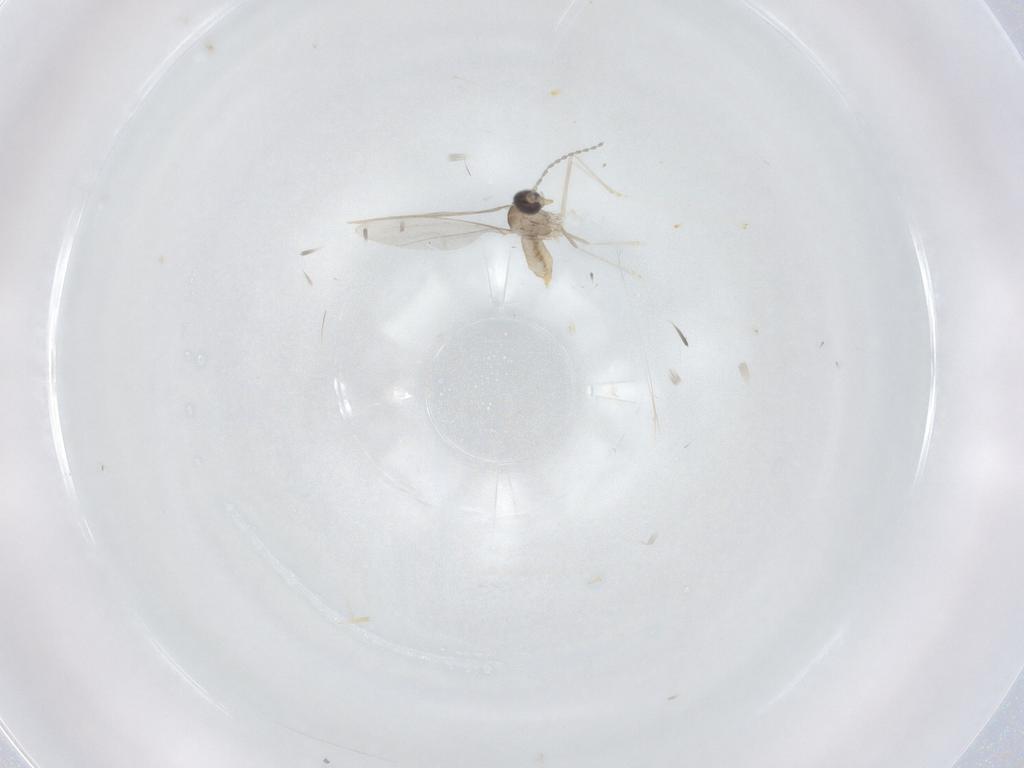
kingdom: Animalia
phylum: Arthropoda
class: Insecta
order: Diptera
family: Cecidomyiidae
